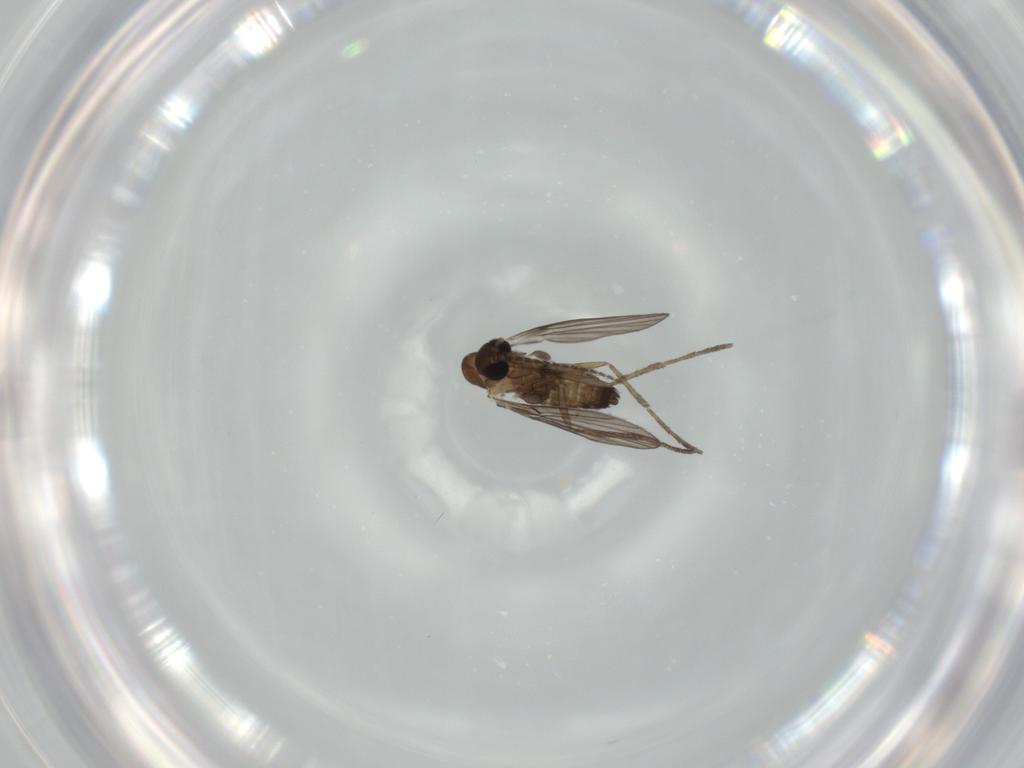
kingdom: Animalia
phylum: Arthropoda
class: Insecta
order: Diptera
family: Psychodidae
